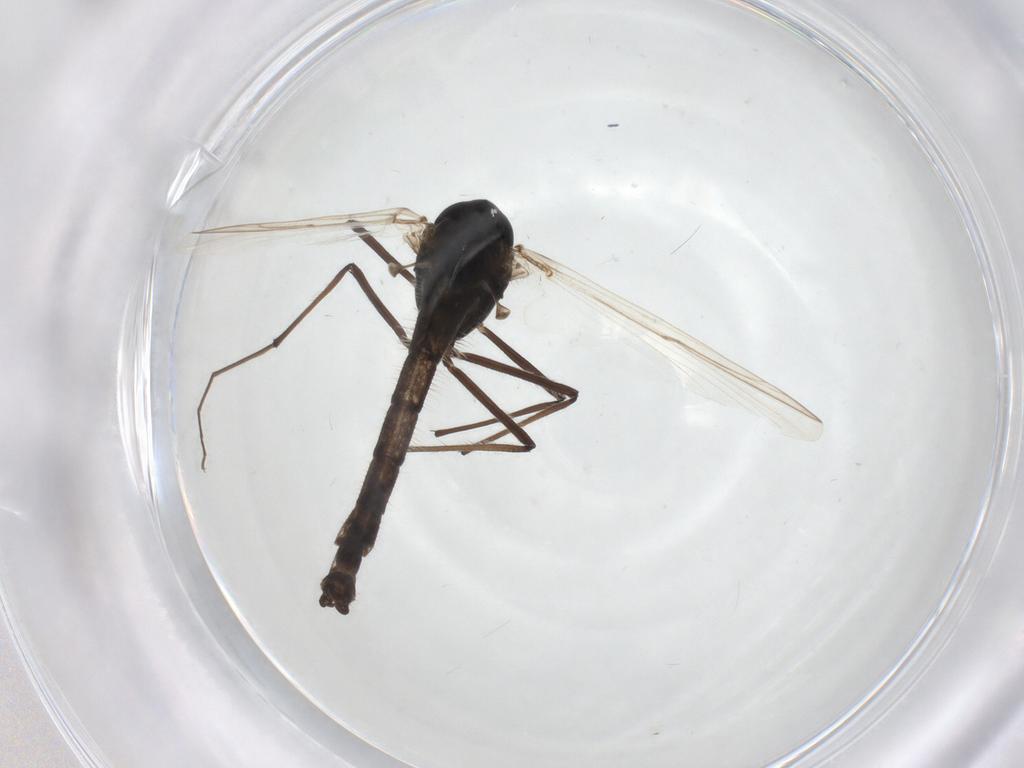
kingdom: Animalia
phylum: Arthropoda
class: Insecta
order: Diptera
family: Chironomidae
